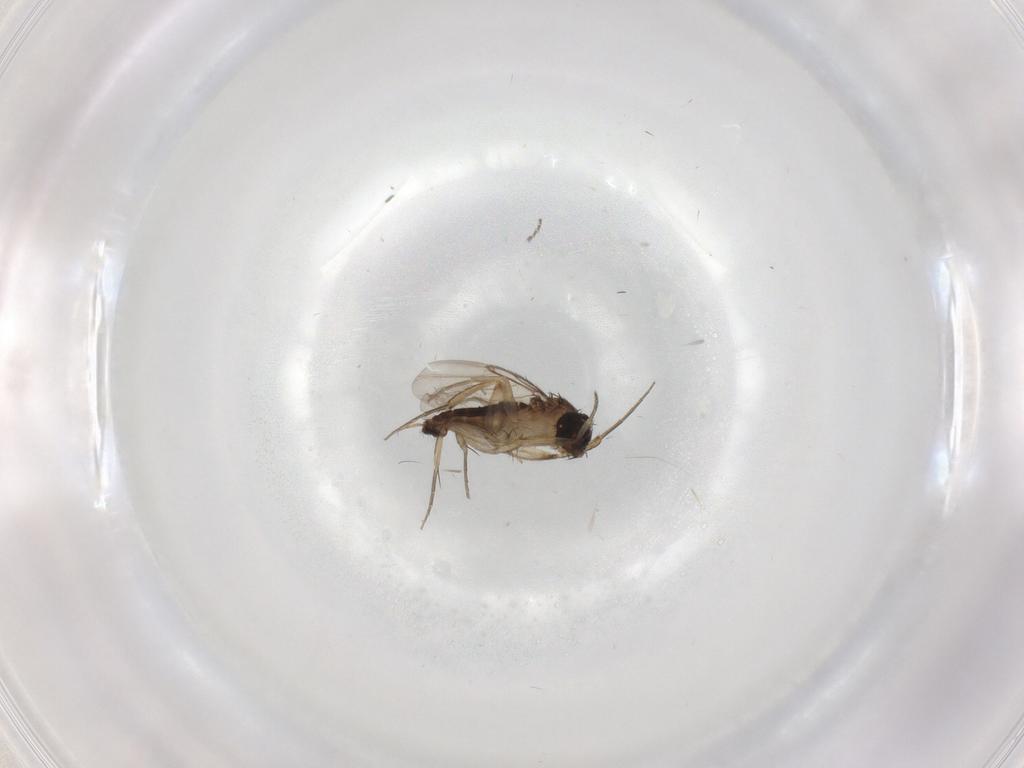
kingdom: Animalia
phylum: Arthropoda
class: Insecta
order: Diptera
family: Phoridae
